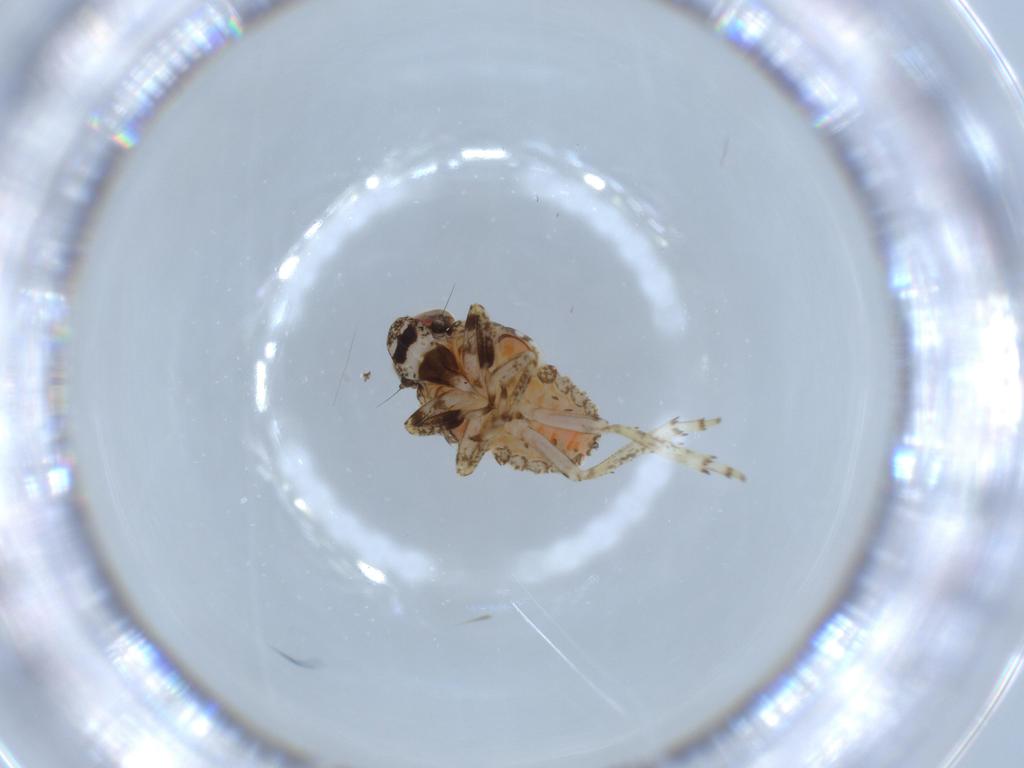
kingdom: Animalia
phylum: Arthropoda
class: Insecta
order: Hemiptera
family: Issidae
